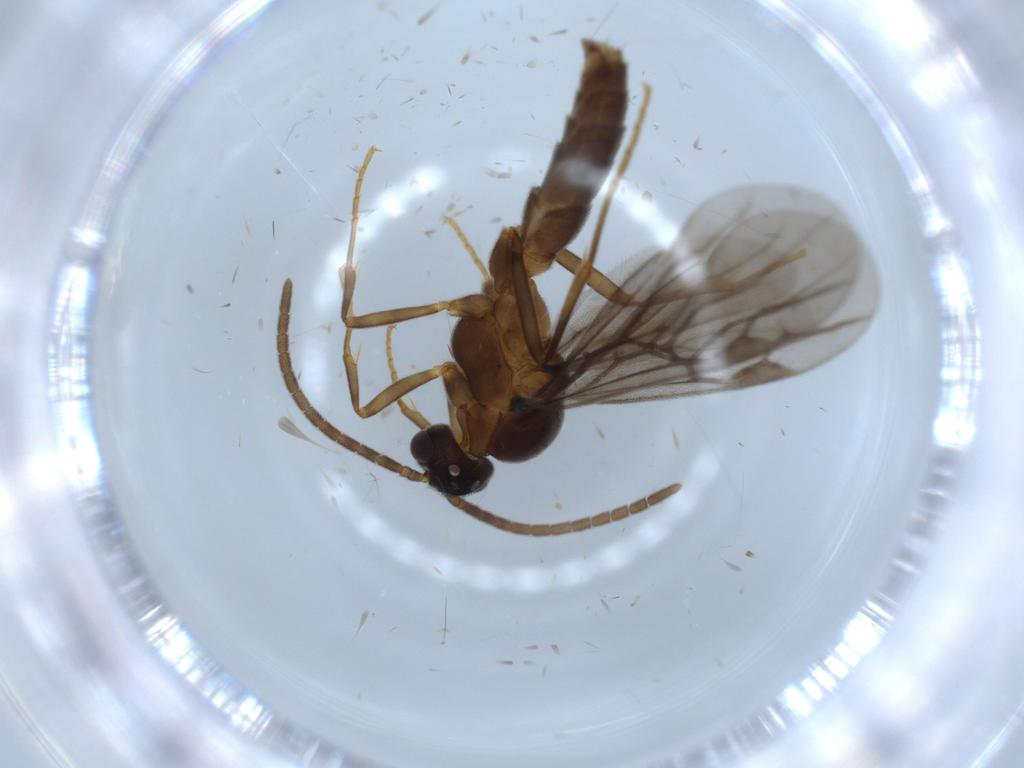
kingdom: Animalia
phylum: Arthropoda
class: Insecta
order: Hymenoptera
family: Formicidae
